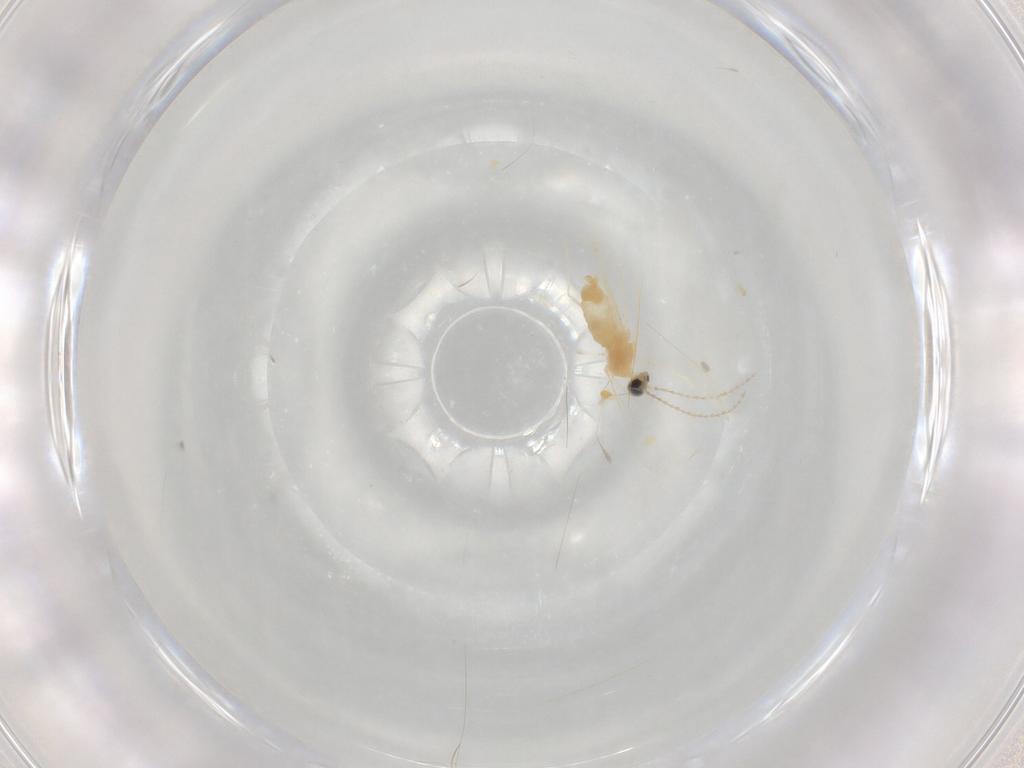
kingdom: Animalia
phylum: Arthropoda
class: Insecta
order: Diptera
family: Cecidomyiidae
